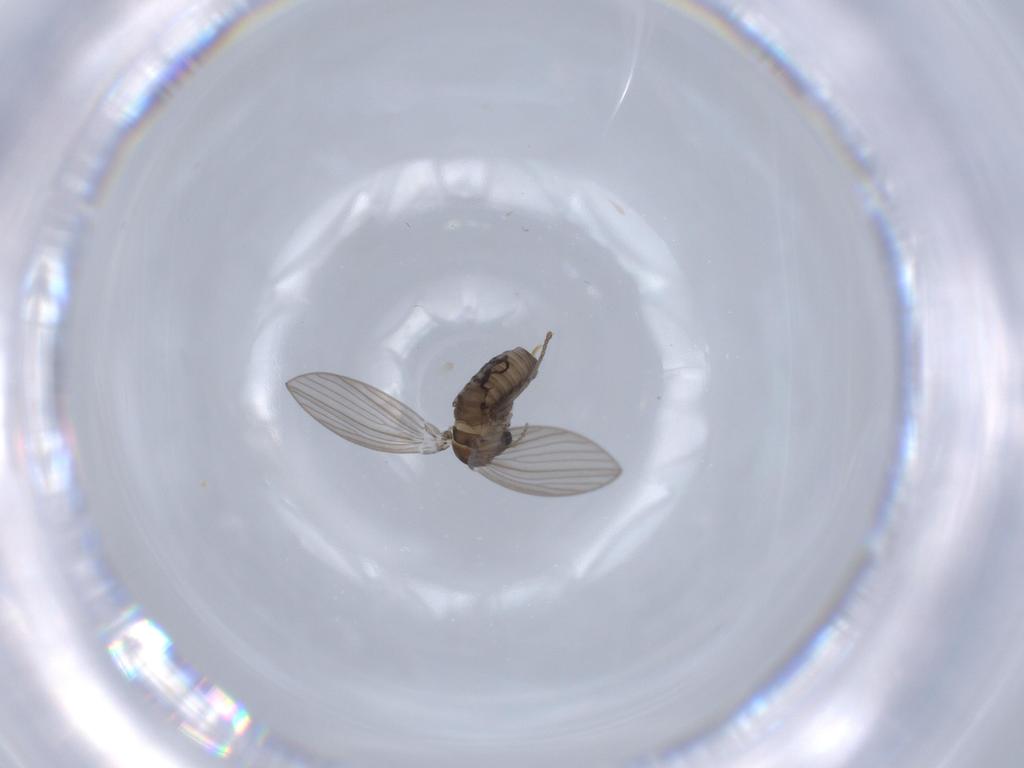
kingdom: Animalia
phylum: Arthropoda
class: Insecta
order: Diptera
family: Psychodidae
